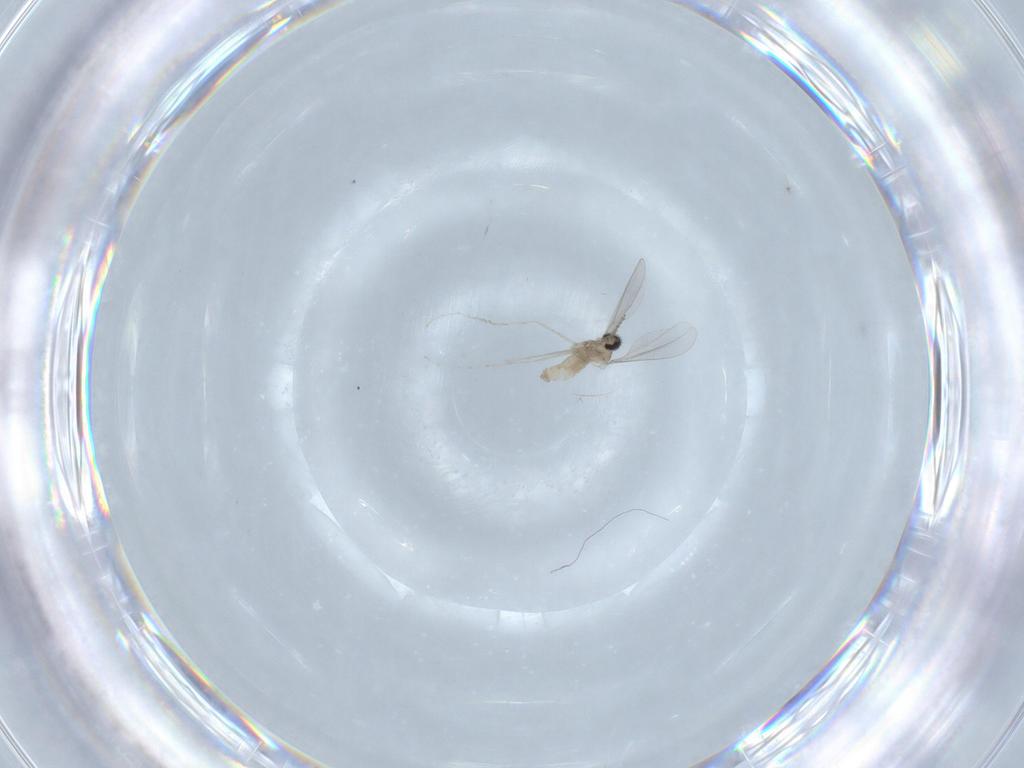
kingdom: Animalia
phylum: Arthropoda
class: Insecta
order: Diptera
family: Cecidomyiidae
